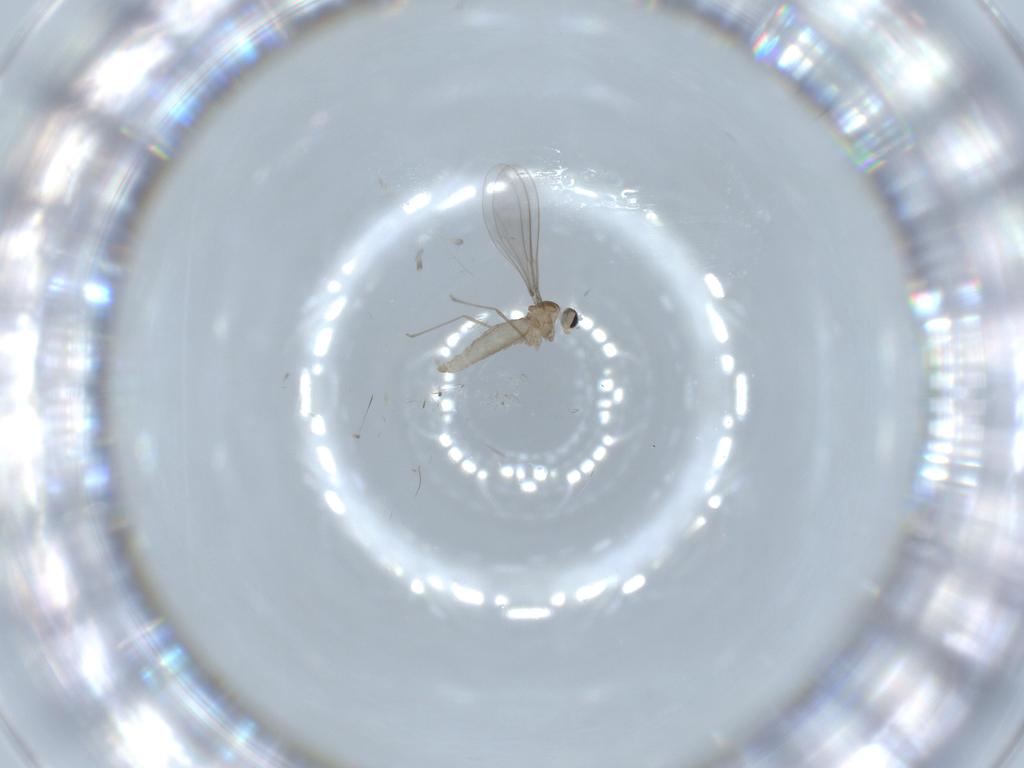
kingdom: Animalia
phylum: Arthropoda
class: Insecta
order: Diptera
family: Cecidomyiidae
